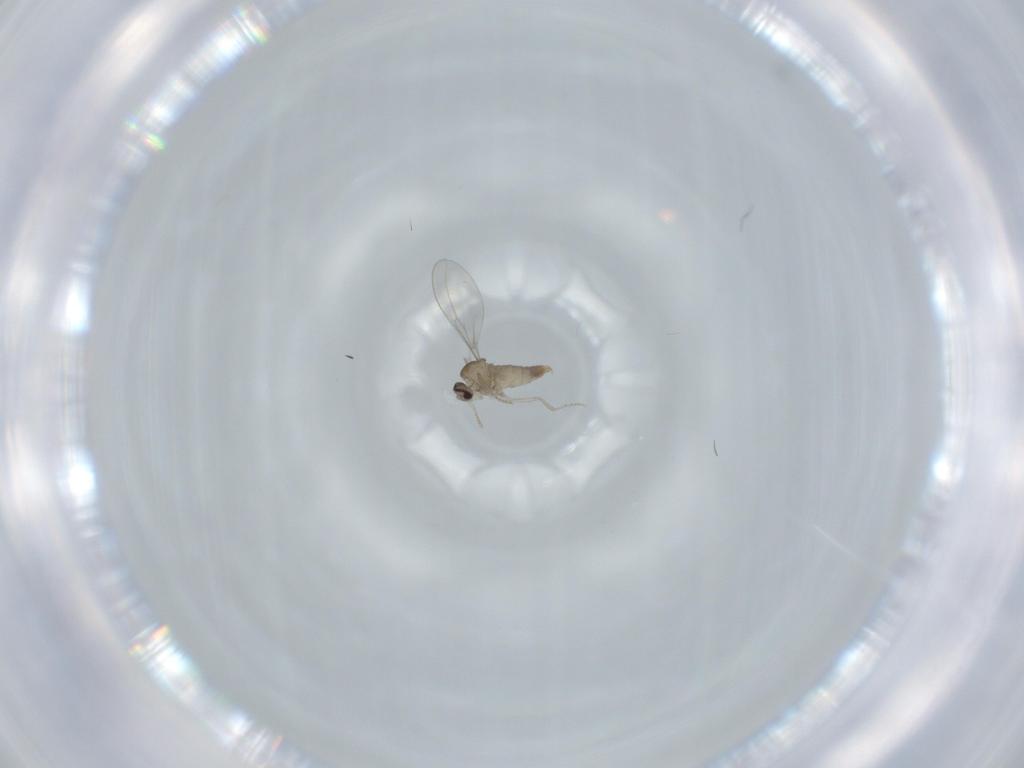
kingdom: Animalia
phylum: Arthropoda
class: Insecta
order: Diptera
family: Cecidomyiidae
